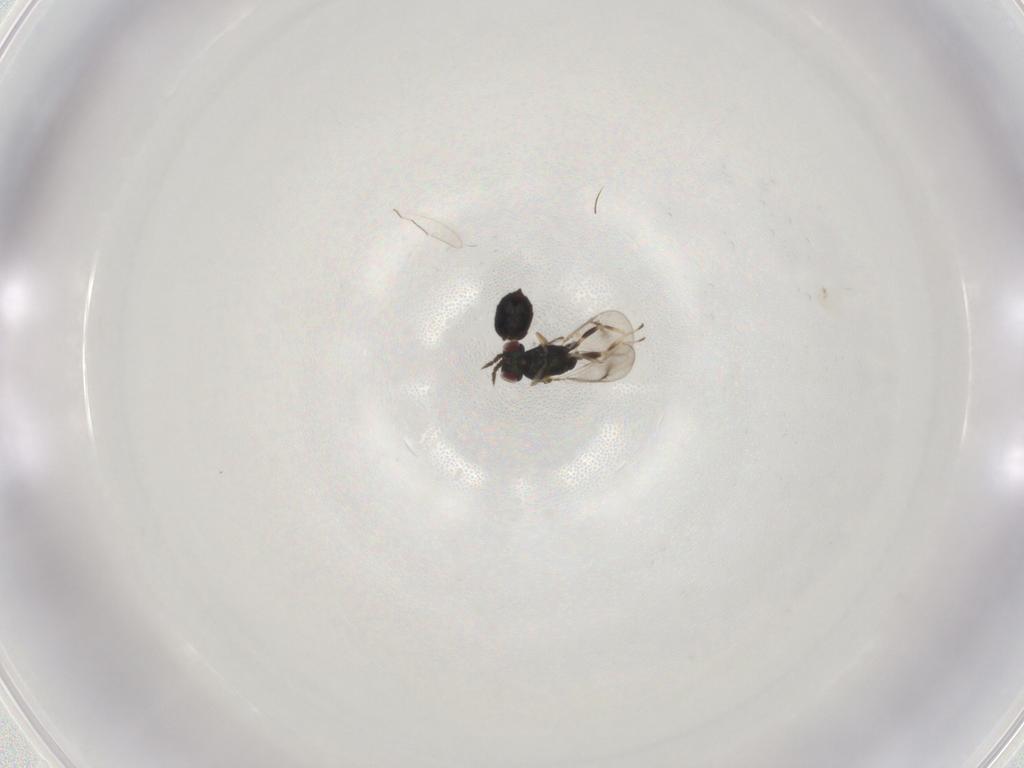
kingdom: Animalia
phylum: Arthropoda
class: Insecta
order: Hymenoptera
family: Eulophidae
